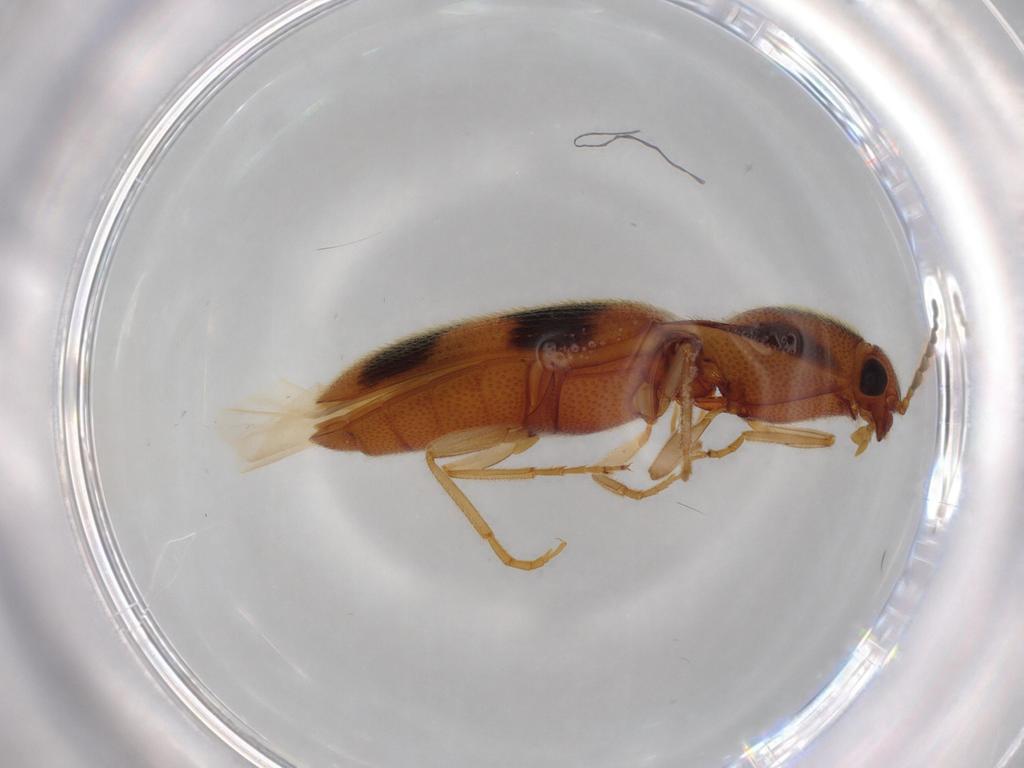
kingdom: Animalia
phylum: Arthropoda
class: Insecta
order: Coleoptera
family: Elateridae
